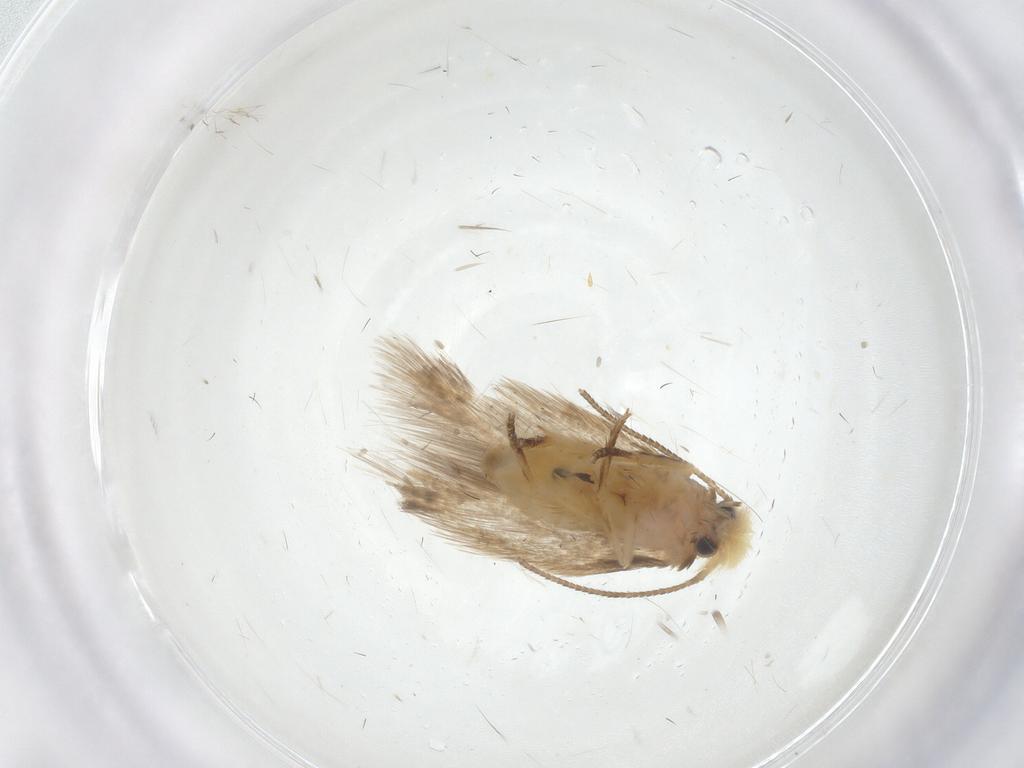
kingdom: Animalia
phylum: Arthropoda
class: Insecta
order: Lepidoptera
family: Nepticulidae
